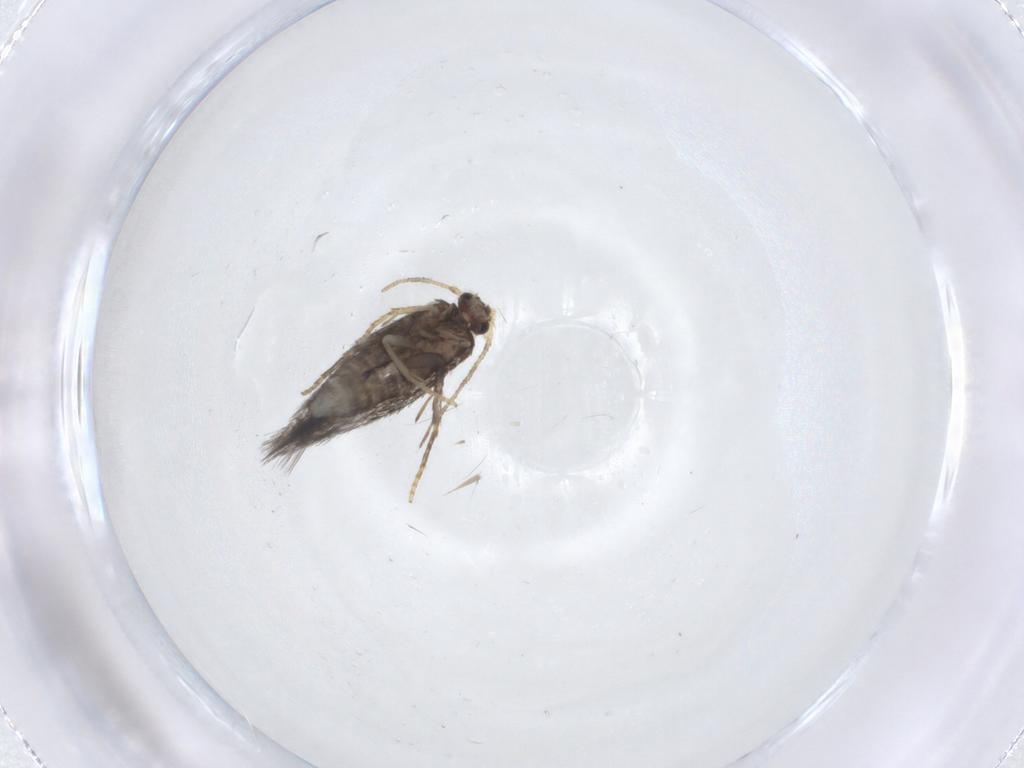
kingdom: Animalia
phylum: Arthropoda
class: Insecta
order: Lepidoptera
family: Nepticulidae
